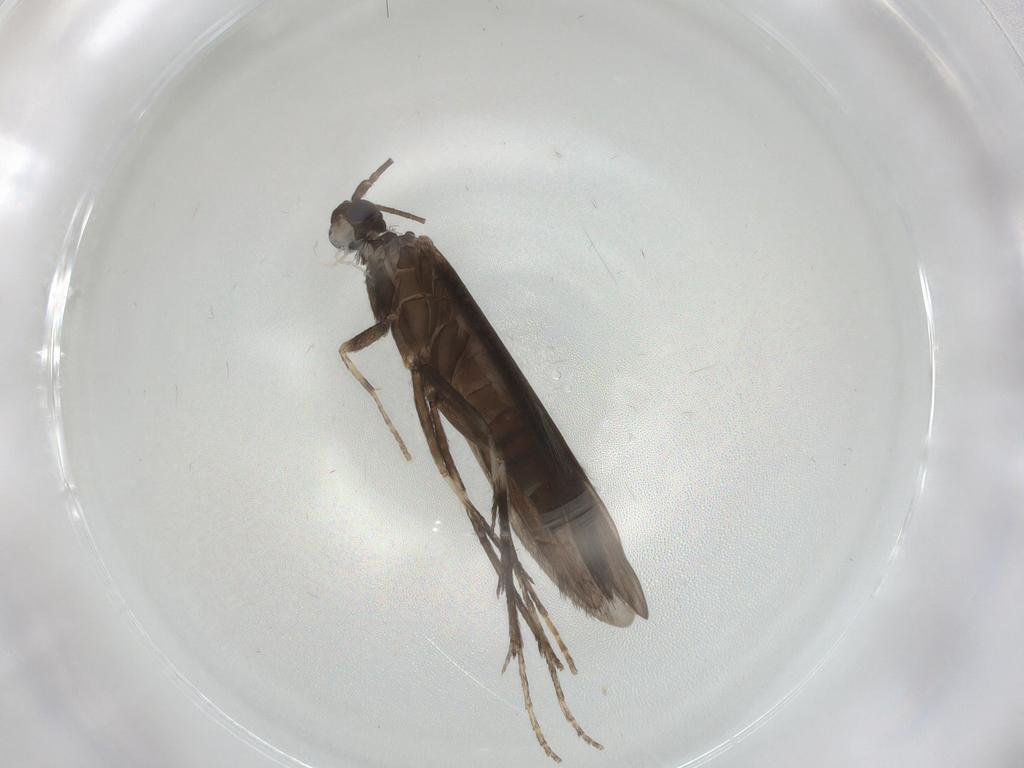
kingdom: Animalia
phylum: Arthropoda
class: Insecta
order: Trichoptera
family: Xiphocentronidae
